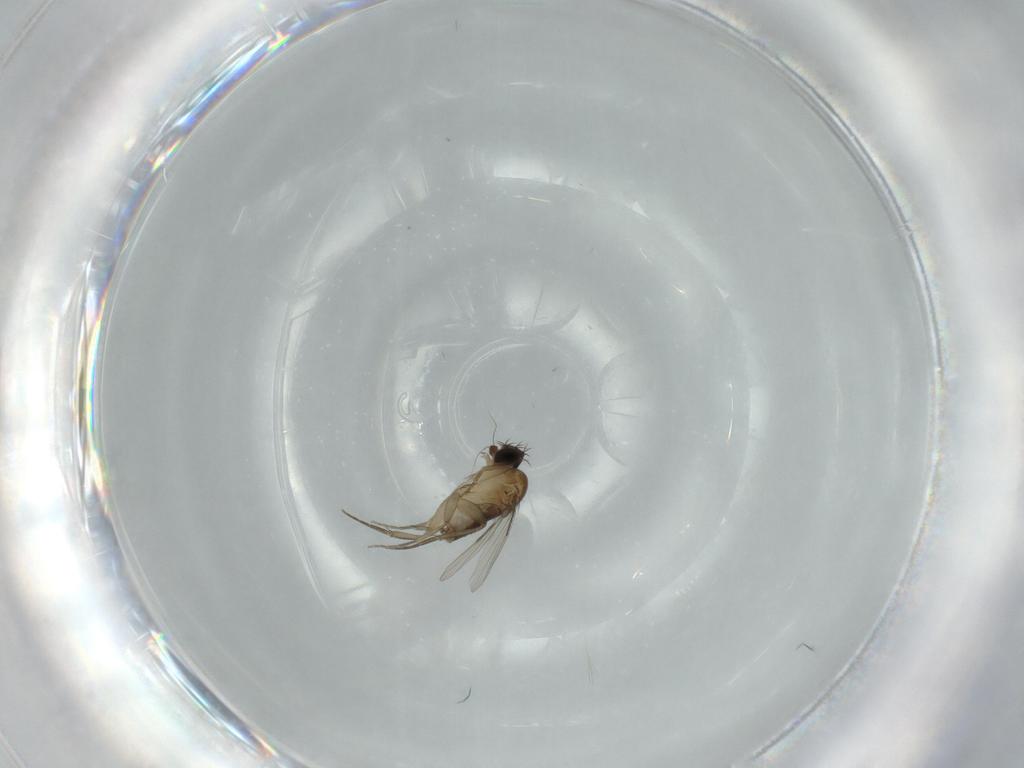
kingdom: Animalia
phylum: Arthropoda
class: Insecta
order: Diptera
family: Phoridae
